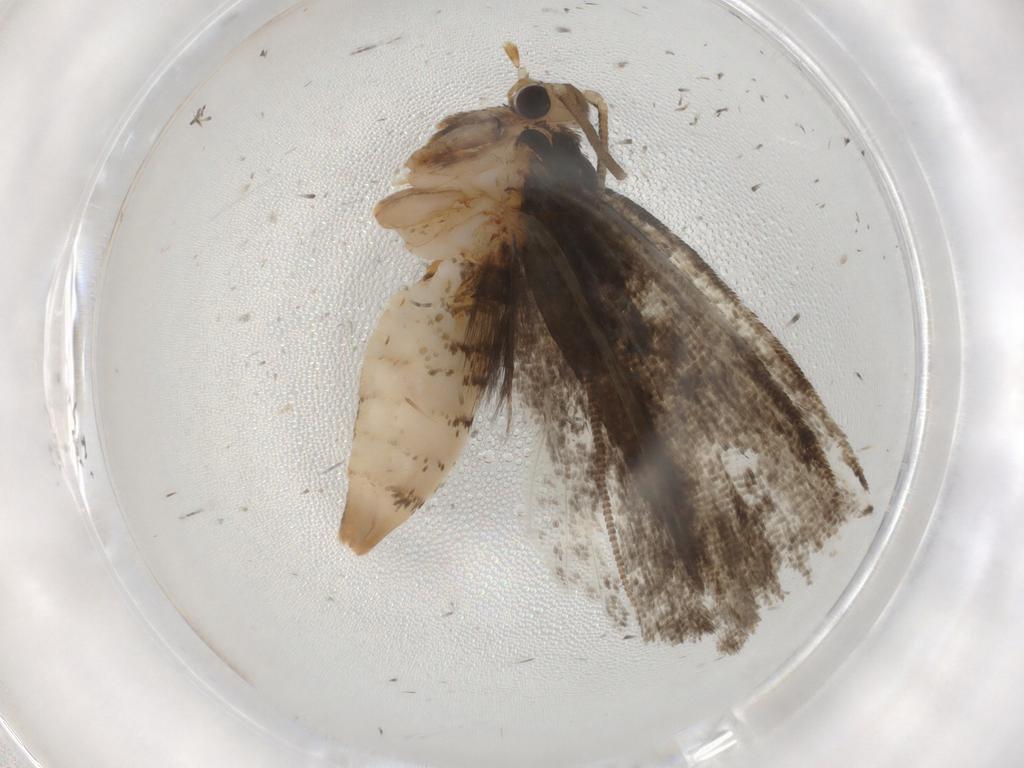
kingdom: Animalia
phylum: Arthropoda
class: Insecta
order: Lepidoptera
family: Tineidae
